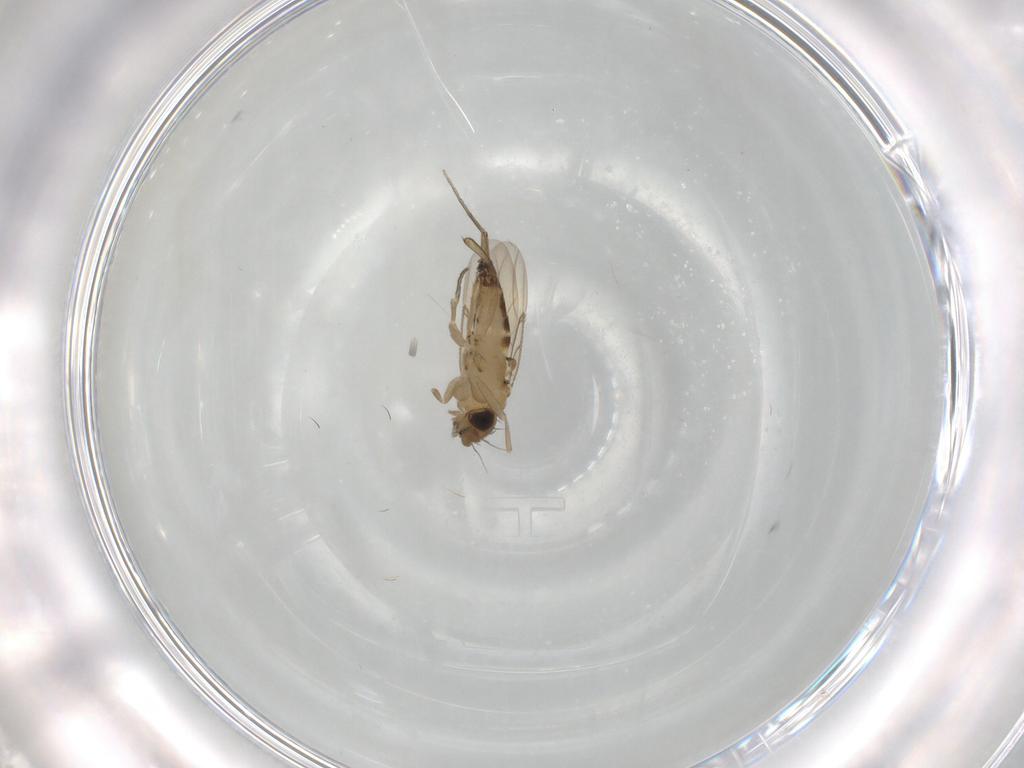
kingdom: Animalia
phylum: Arthropoda
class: Insecta
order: Diptera
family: Phoridae
